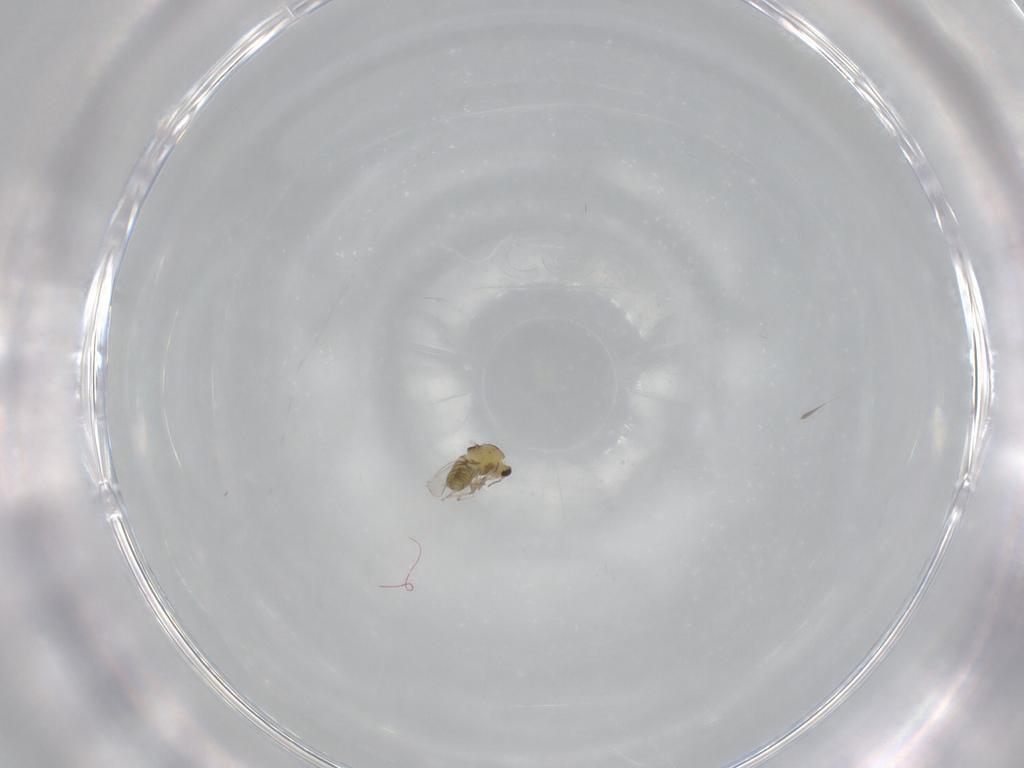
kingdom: Animalia
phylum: Arthropoda
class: Insecta
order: Diptera
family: Chironomidae
